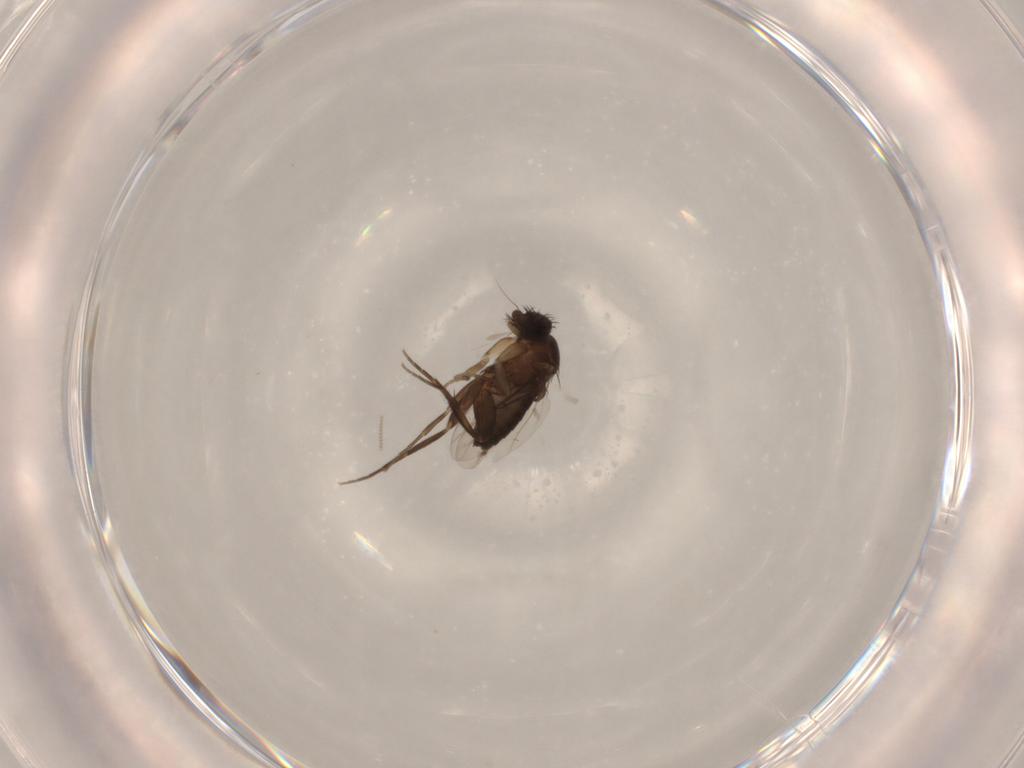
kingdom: Animalia
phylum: Arthropoda
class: Insecta
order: Diptera
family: Phoridae
